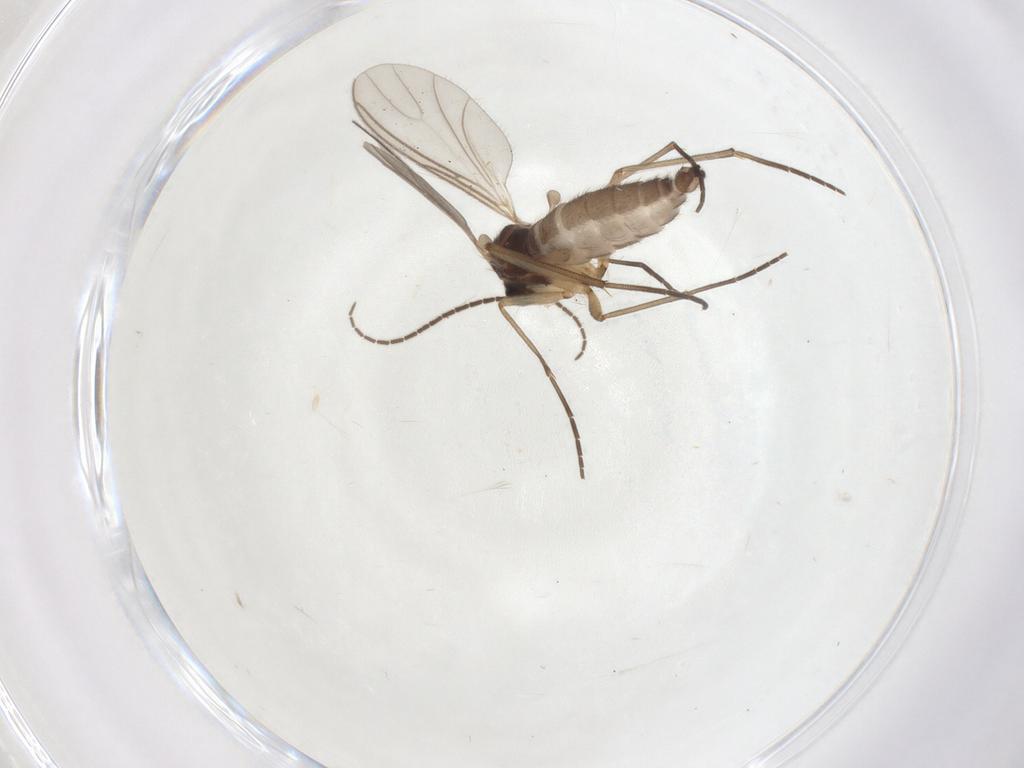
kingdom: Animalia
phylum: Arthropoda
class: Insecta
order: Diptera
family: Sciaridae
